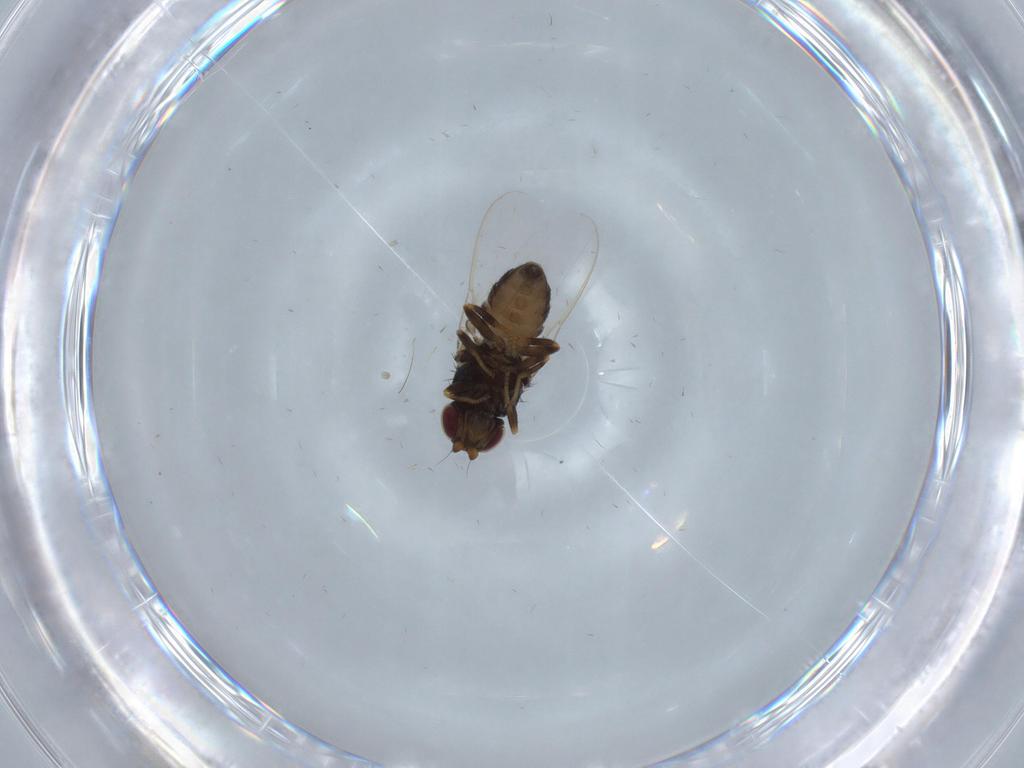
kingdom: Animalia
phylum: Arthropoda
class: Insecta
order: Diptera
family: Chloropidae
